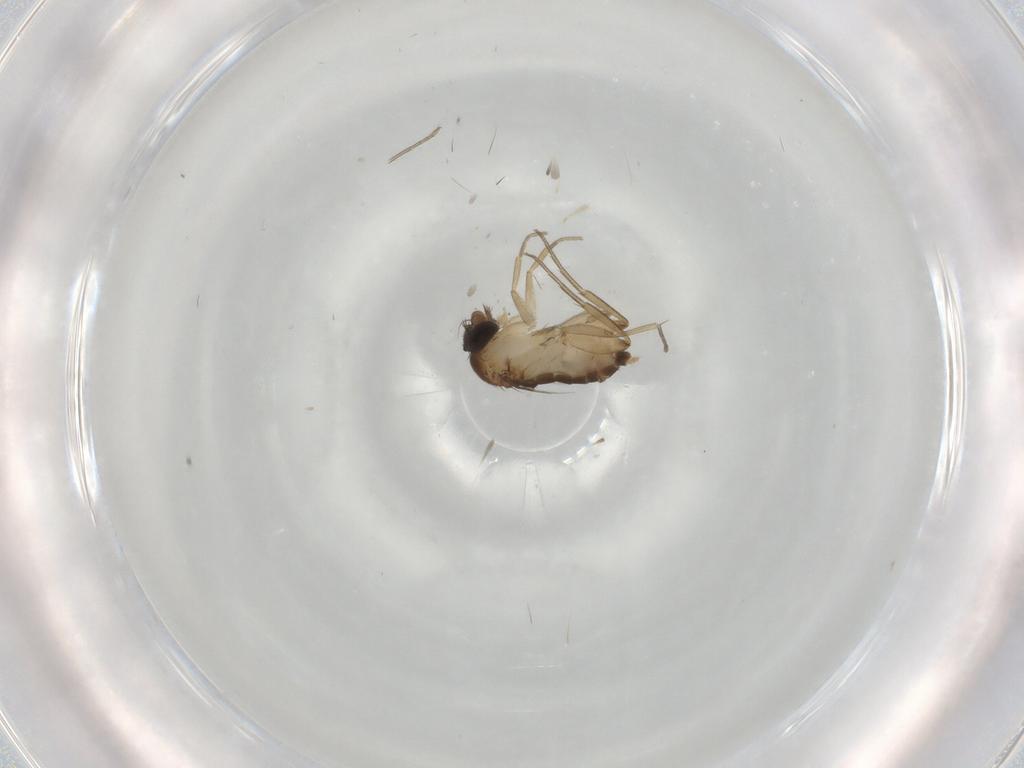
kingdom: Animalia
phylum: Arthropoda
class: Insecta
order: Diptera
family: Phoridae
